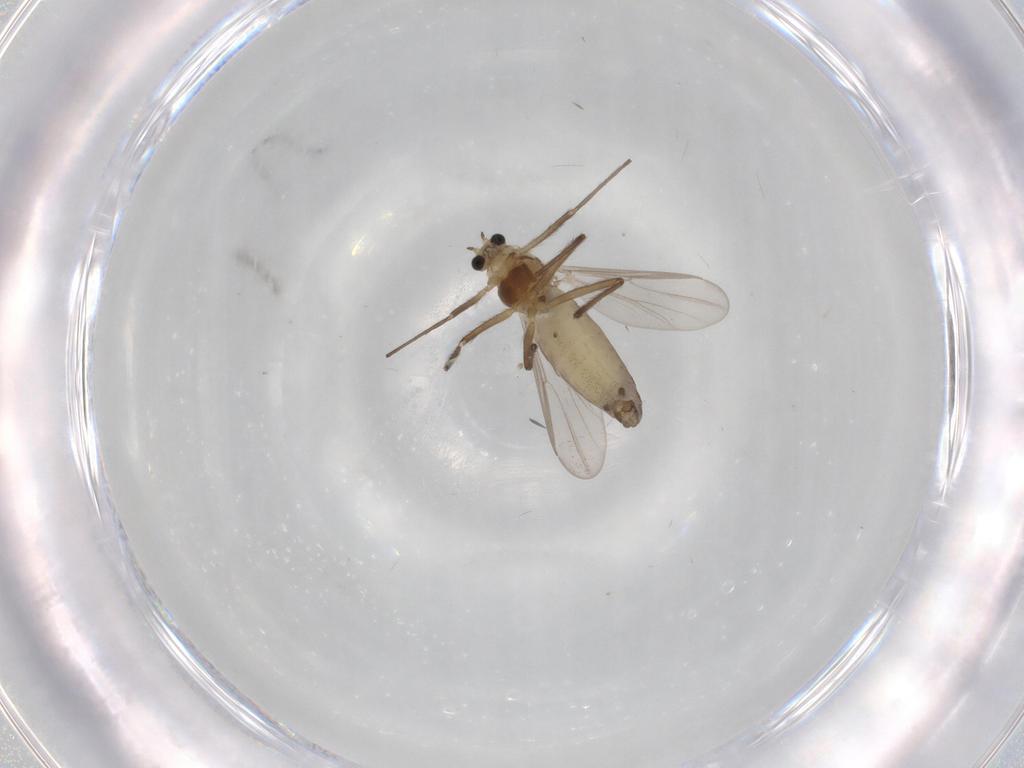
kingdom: Animalia
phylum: Arthropoda
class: Insecta
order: Diptera
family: Chironomidae
